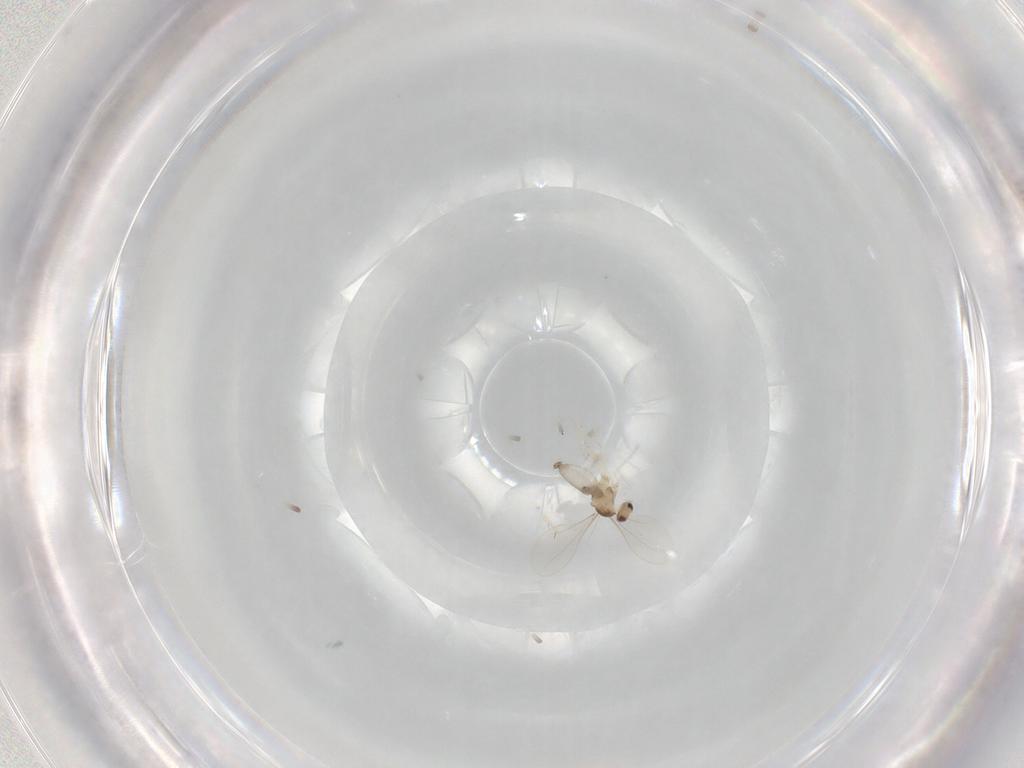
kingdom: Animalia
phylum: Arthropoda
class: Insecta
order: Diptera
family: Cecidomyiidae
